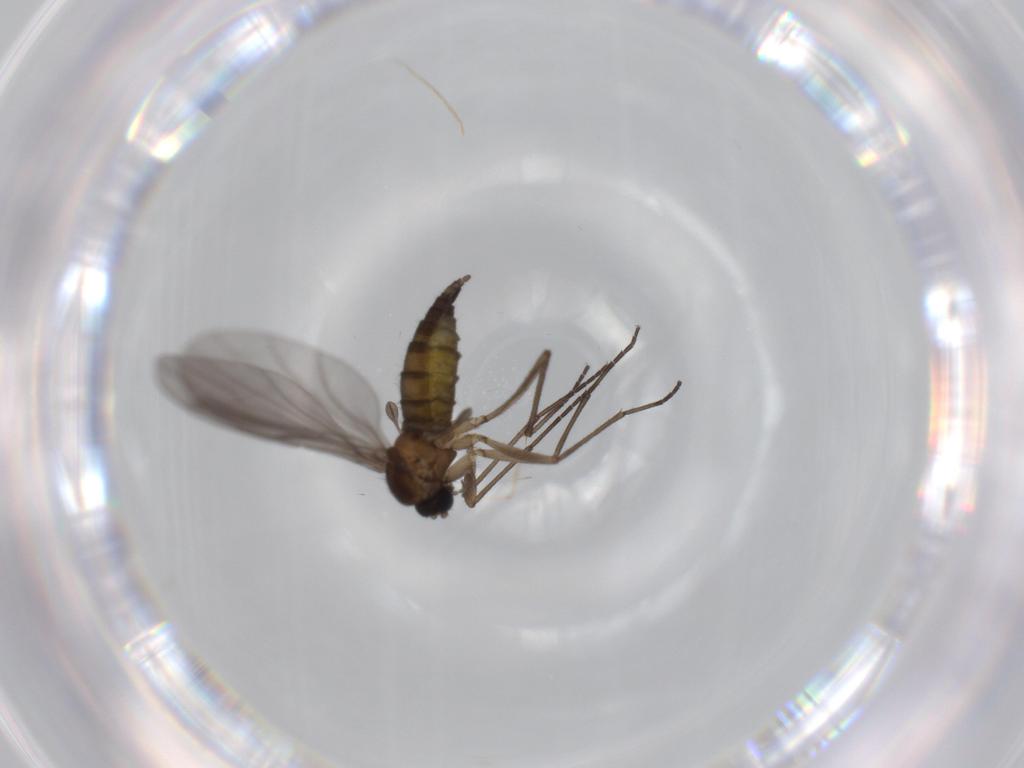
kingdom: Animalia
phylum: Arthropoda
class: Insecta
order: Diptera
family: Sciaridae
